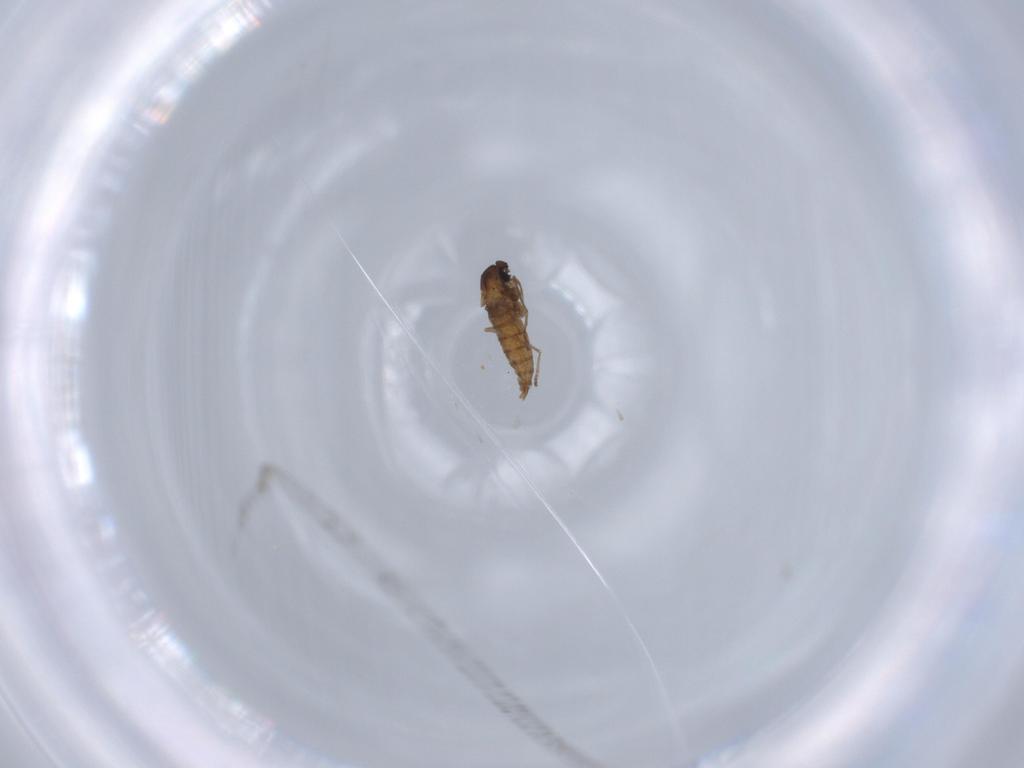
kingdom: Animalia
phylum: Arthropoda
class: Insecta
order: Diptera
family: Cecidomyiidae
